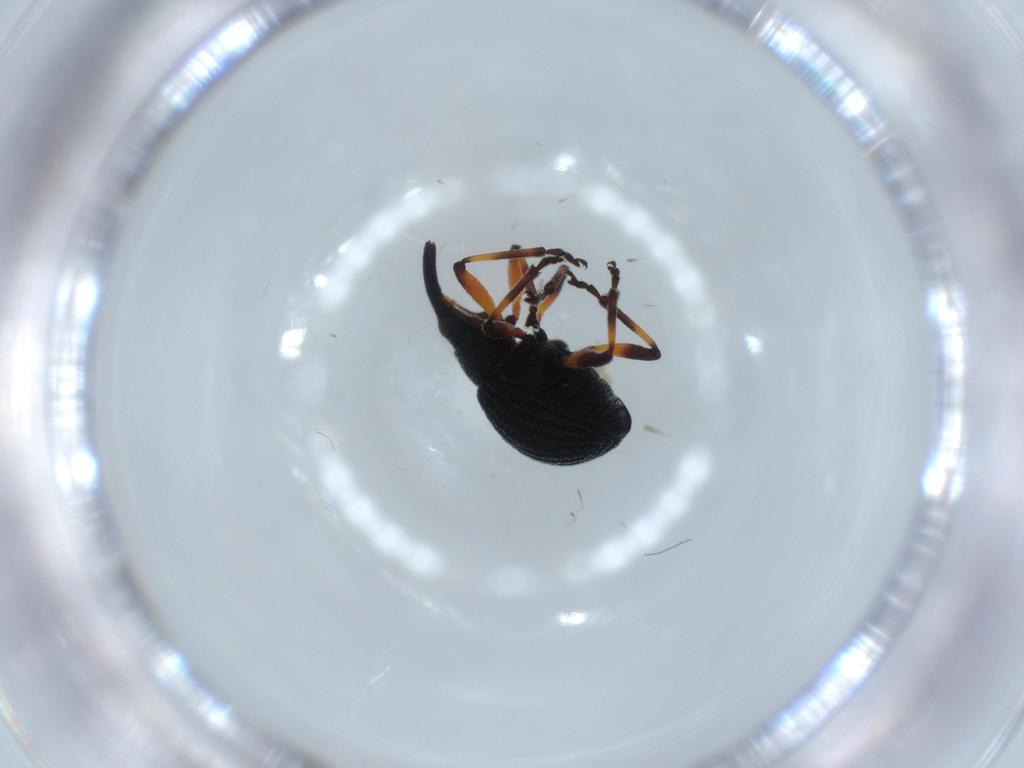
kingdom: Animalia
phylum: Arthropoda
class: Insecta
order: Coleoptera
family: Brentidae
